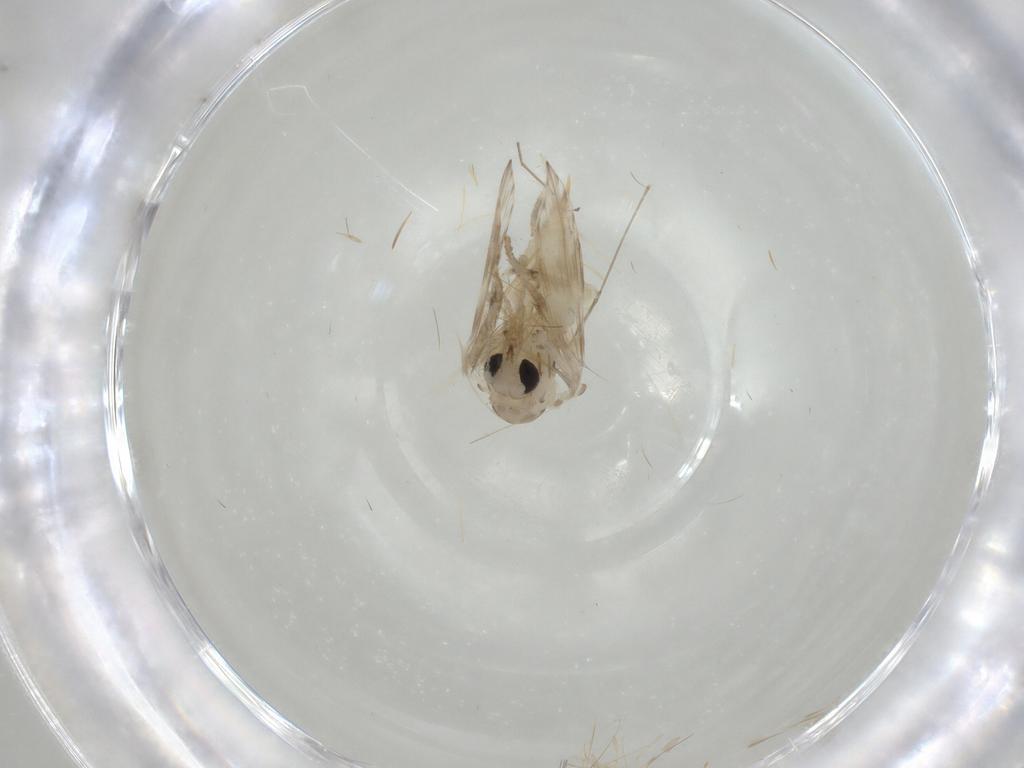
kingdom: Animalia
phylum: Arthropoda
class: Insecta
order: Diptera
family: Psychodidae
